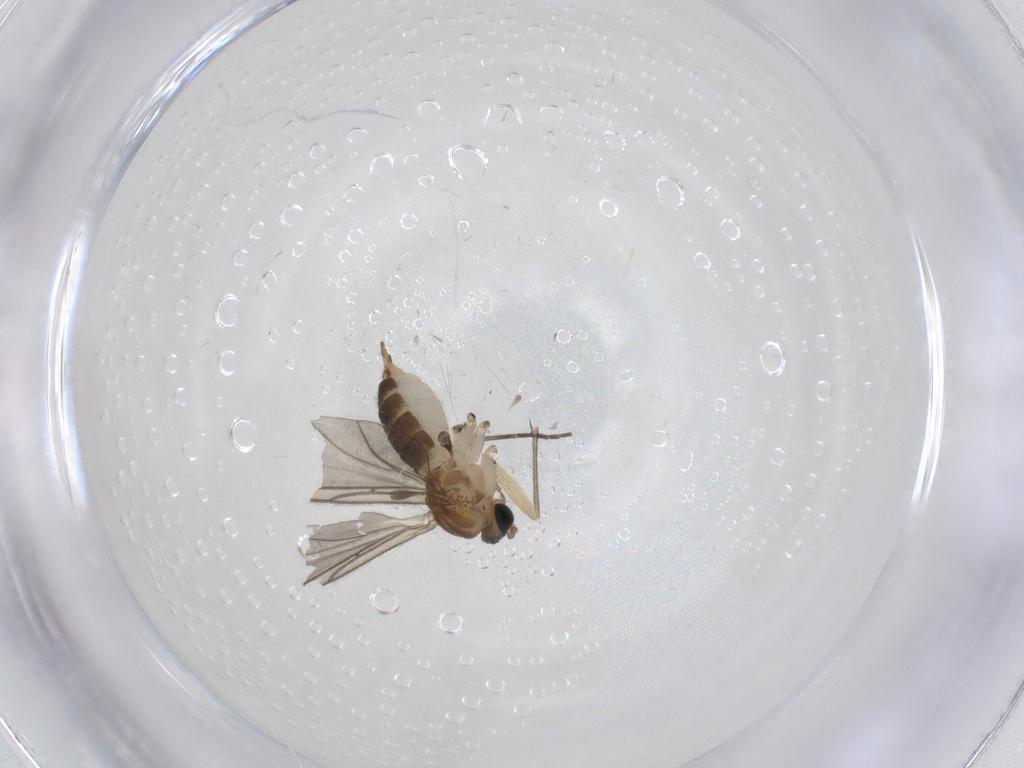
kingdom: Animalia
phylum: Arthropoda
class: Insecta
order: Diptera
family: Sciaridae
